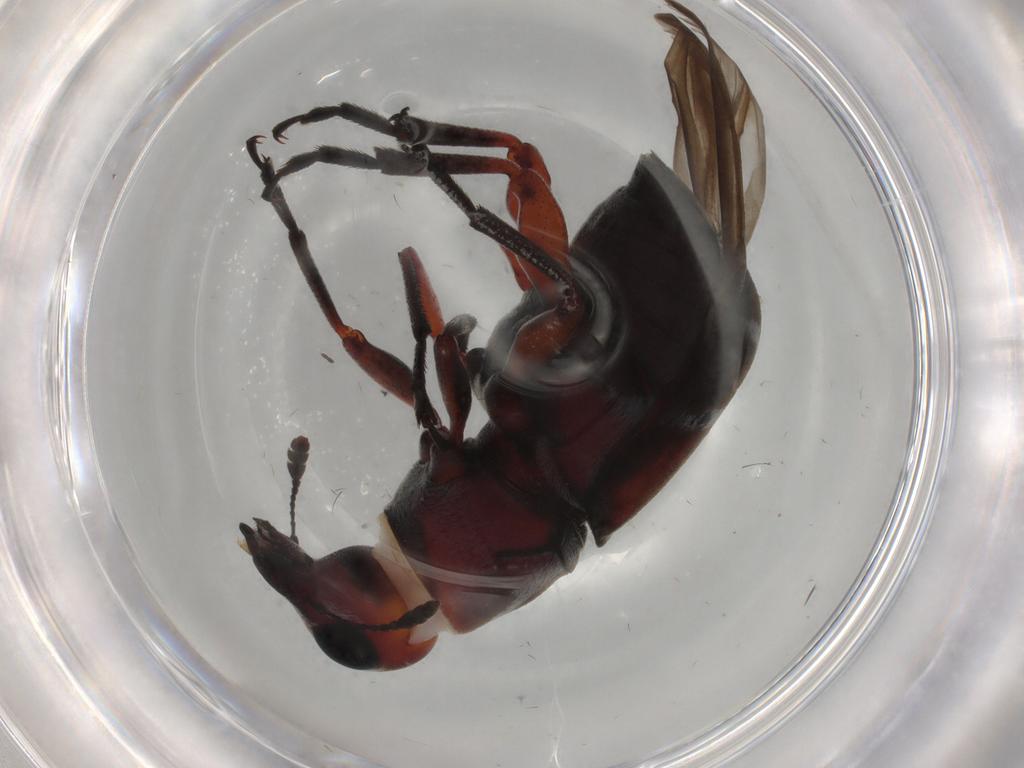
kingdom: Animalia
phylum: Arthropoda
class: Insecta
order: Coleoptera
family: Anthribidae
